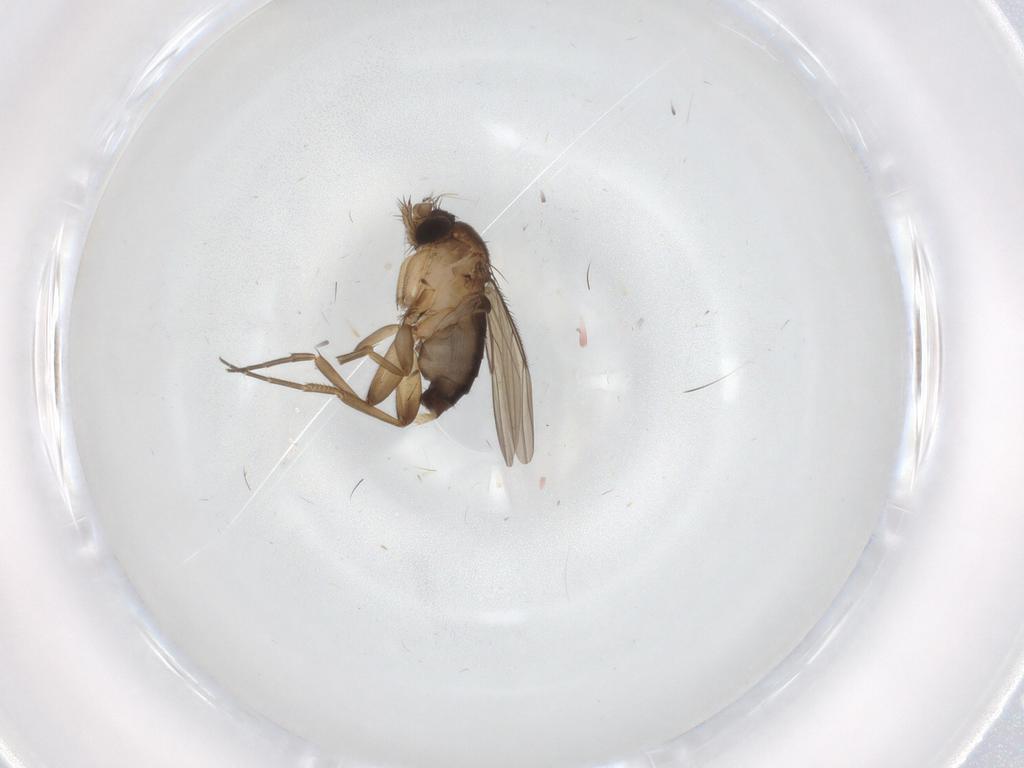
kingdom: Animalia
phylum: Arthropoda
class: Insecta
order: Diptera
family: Phoridae
